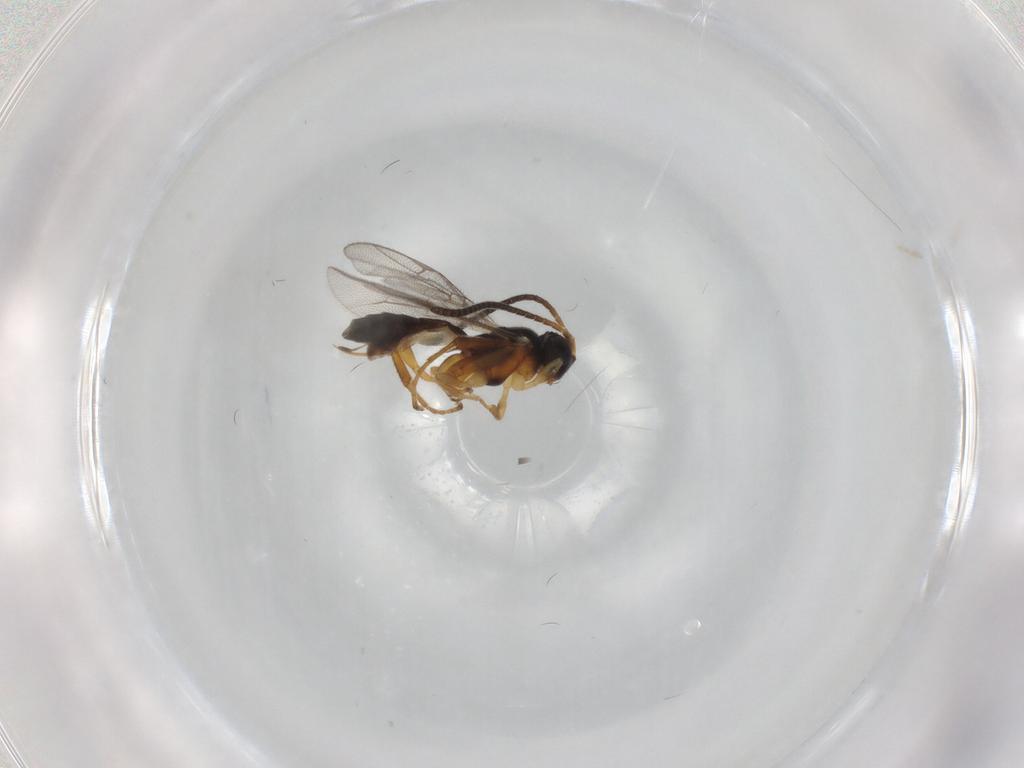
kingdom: Animalia
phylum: Arthropoda
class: Insecta
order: Hymenoptera
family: Ichneumonidae
